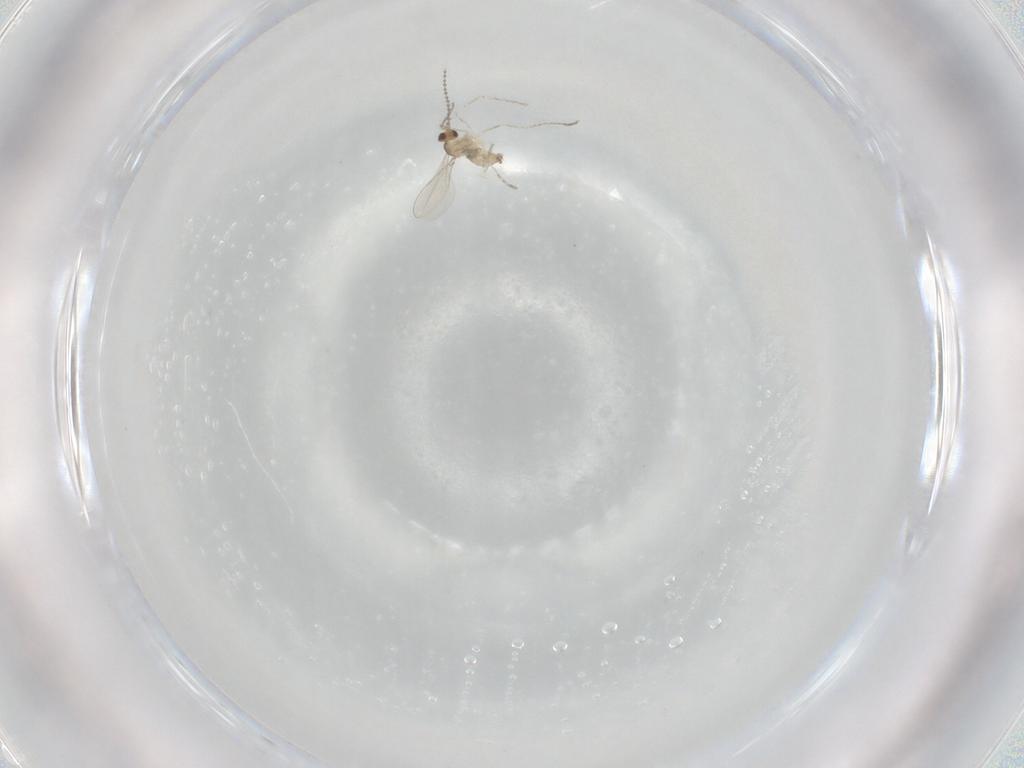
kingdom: Animalia
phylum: Arthropoda
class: Insecta
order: Diptera
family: Cecidomyiidae
